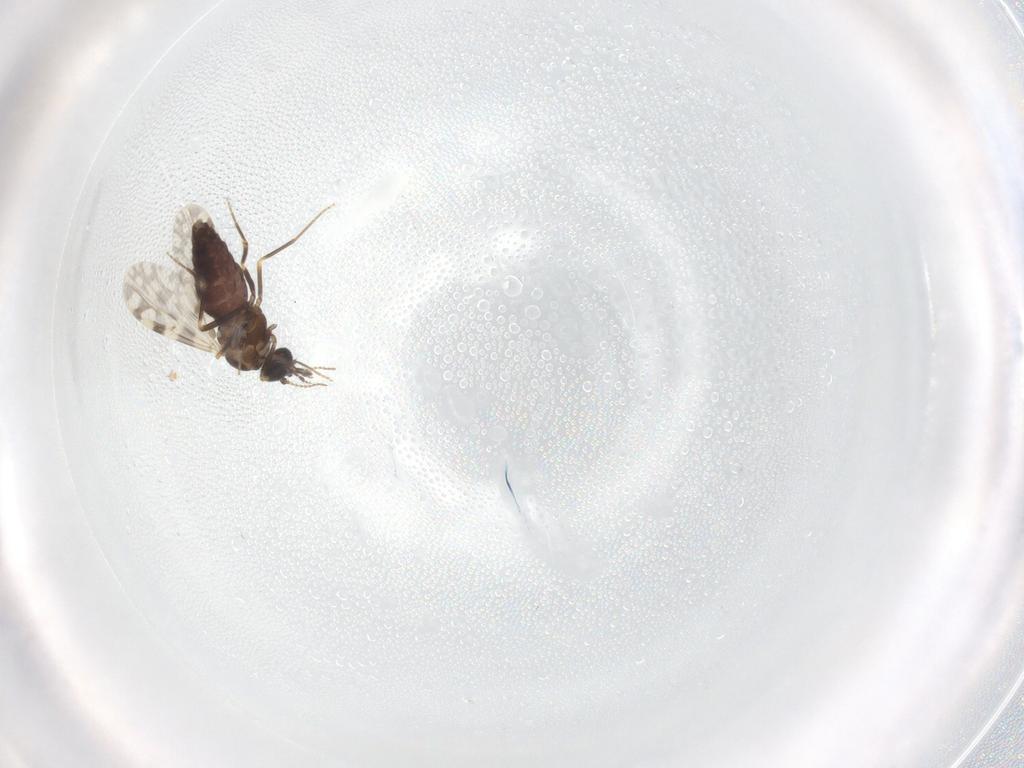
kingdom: Animalia
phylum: Arthropoda
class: Insecta
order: Diptera
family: Ceratopogonidae
